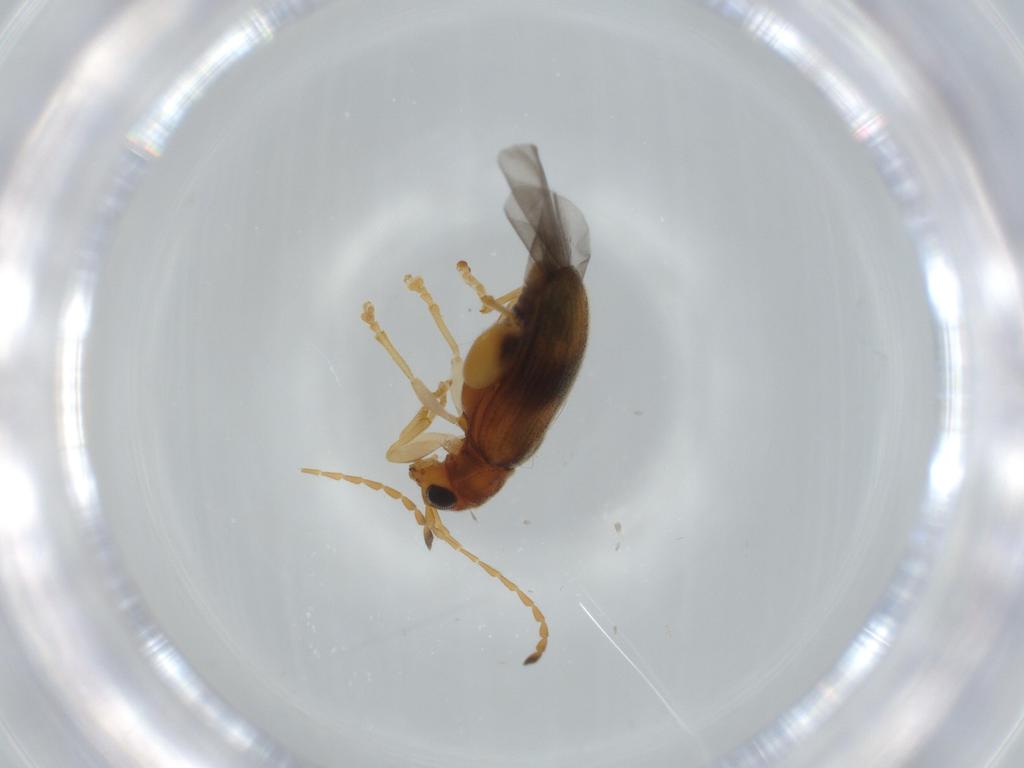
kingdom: Animalia
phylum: Arthropoda
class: Insecta
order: Coleoptera
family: Chrysomelidae
